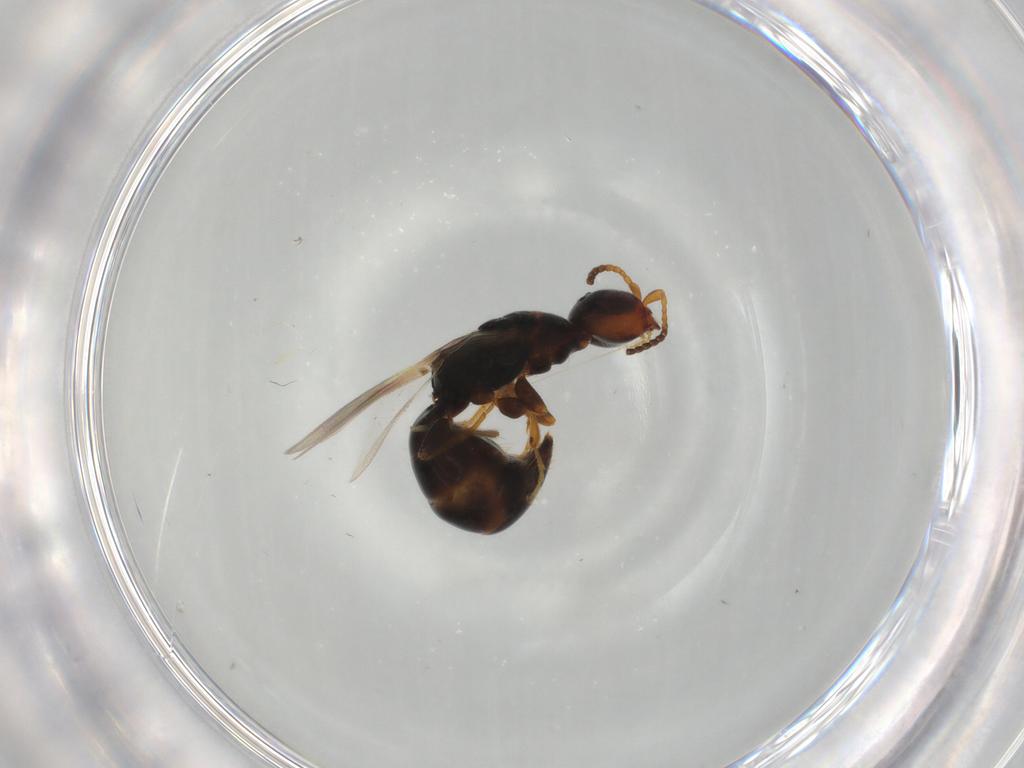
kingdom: Animalia
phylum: Arthropoda
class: Insecta
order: Hymenoptera
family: Bethylidae
